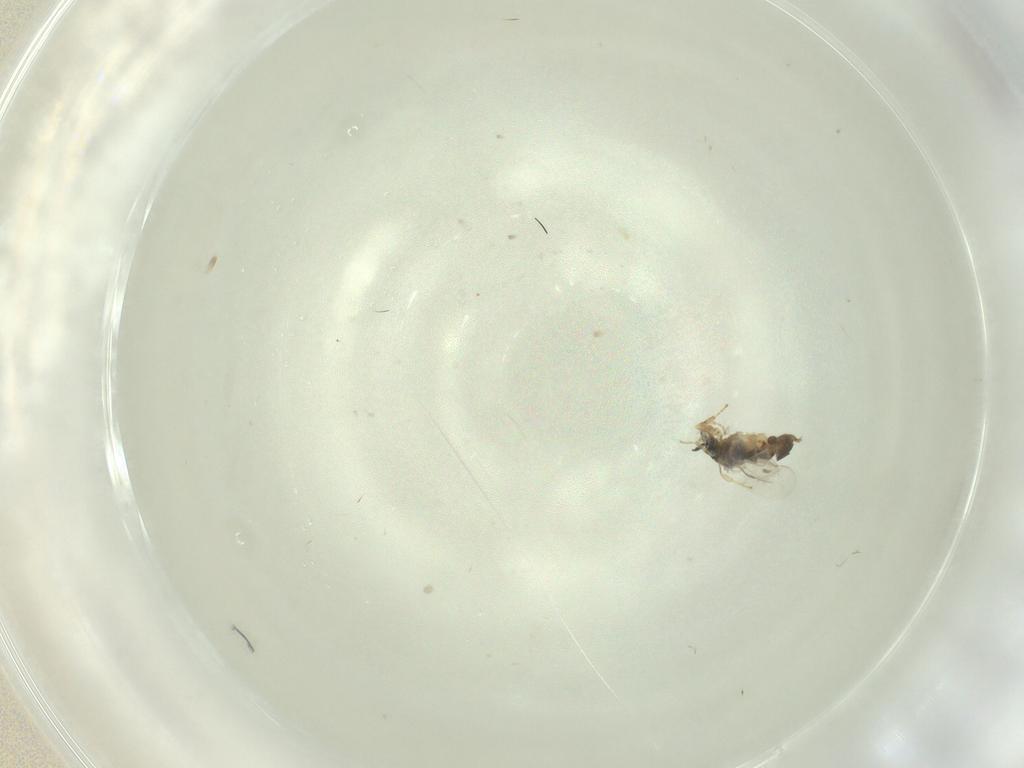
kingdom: Animalia
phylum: Arthropoda
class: Insecta
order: Diptera
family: Scatopsidae
